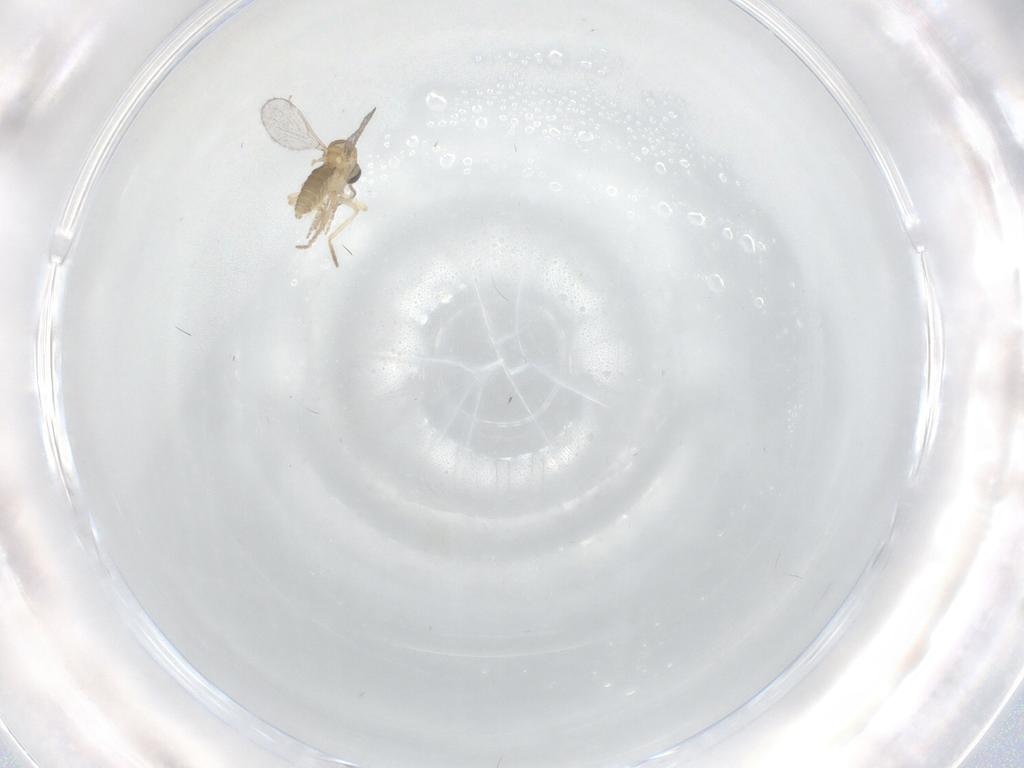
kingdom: Animalia
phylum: Arthropoda
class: Insecta
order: Diptera
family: Ceratopogonidae
